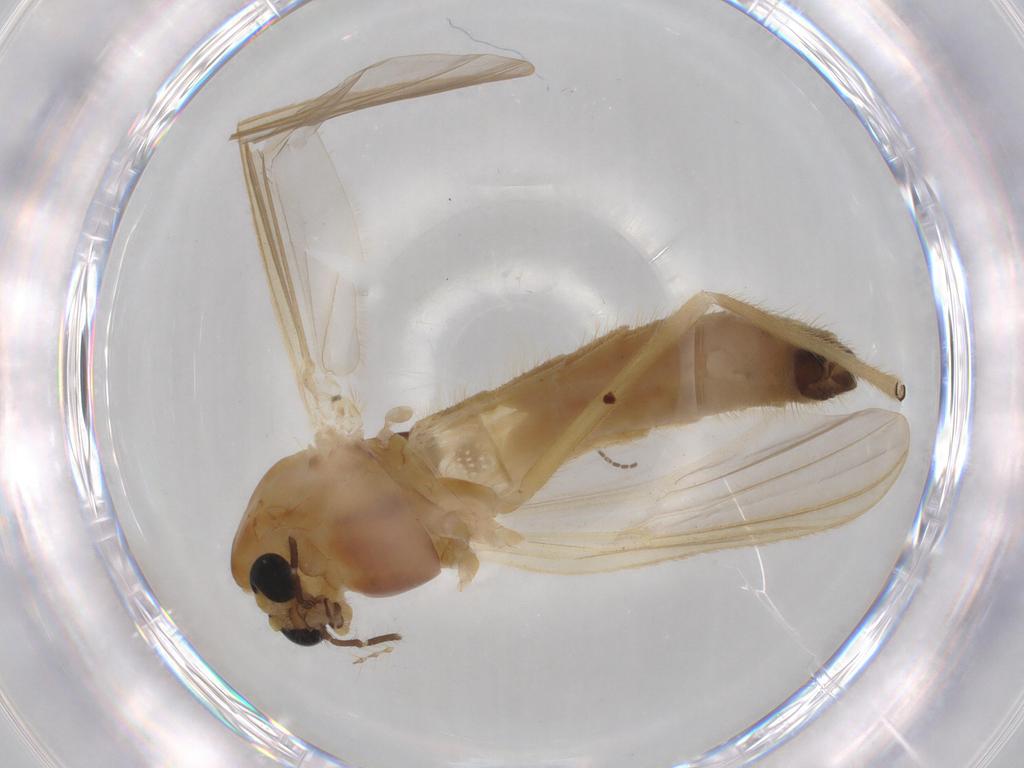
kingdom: Animalia
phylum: Arthropoda
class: Insecta
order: Diptera
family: Chironomidae
